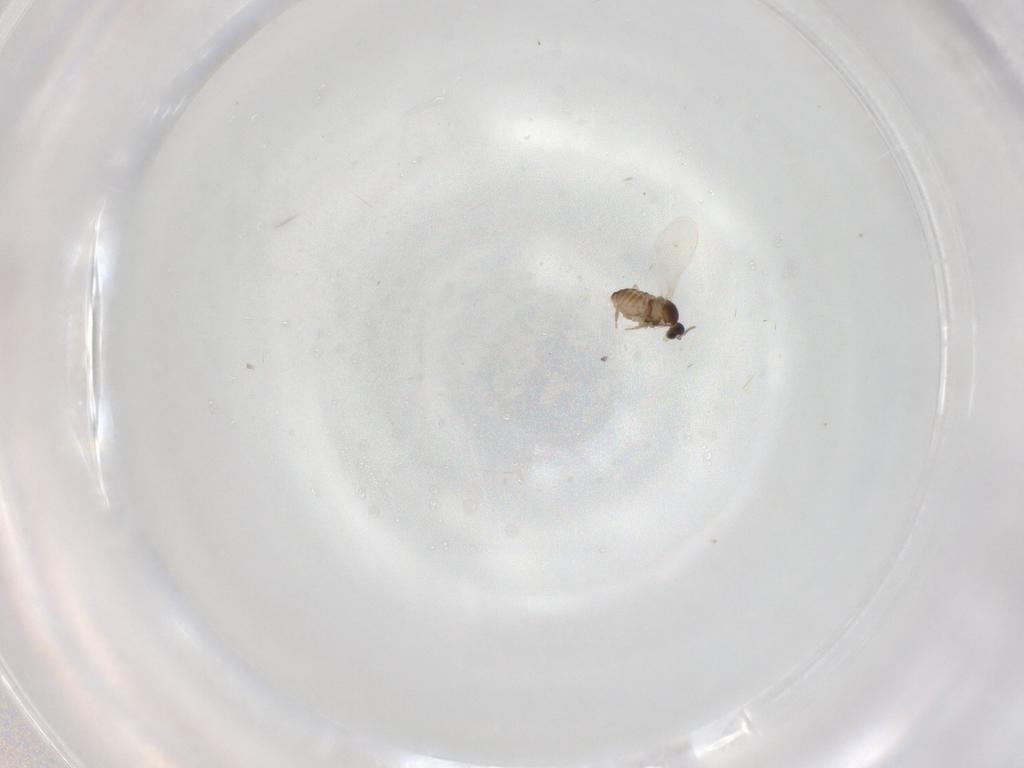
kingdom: Animalia
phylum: Arthropoda
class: Insecta
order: Diptera
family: Cecidomyiidae
